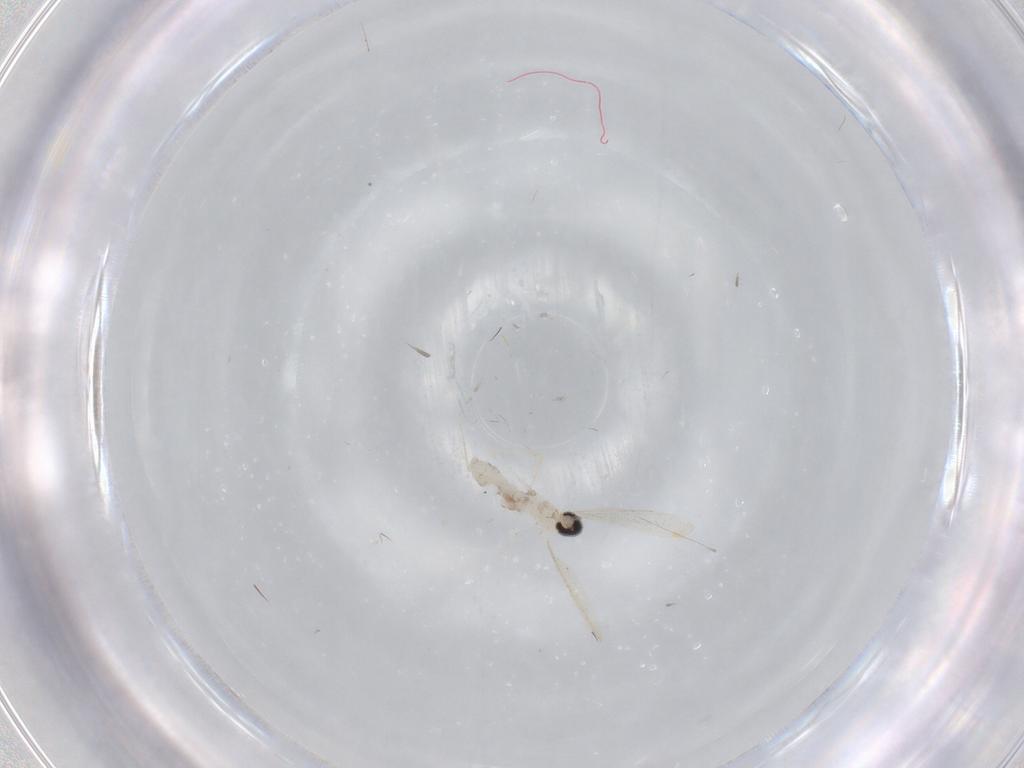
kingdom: Animalia
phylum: Arthropoda
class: Insecta
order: Diptera
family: Cecidomyiidae
